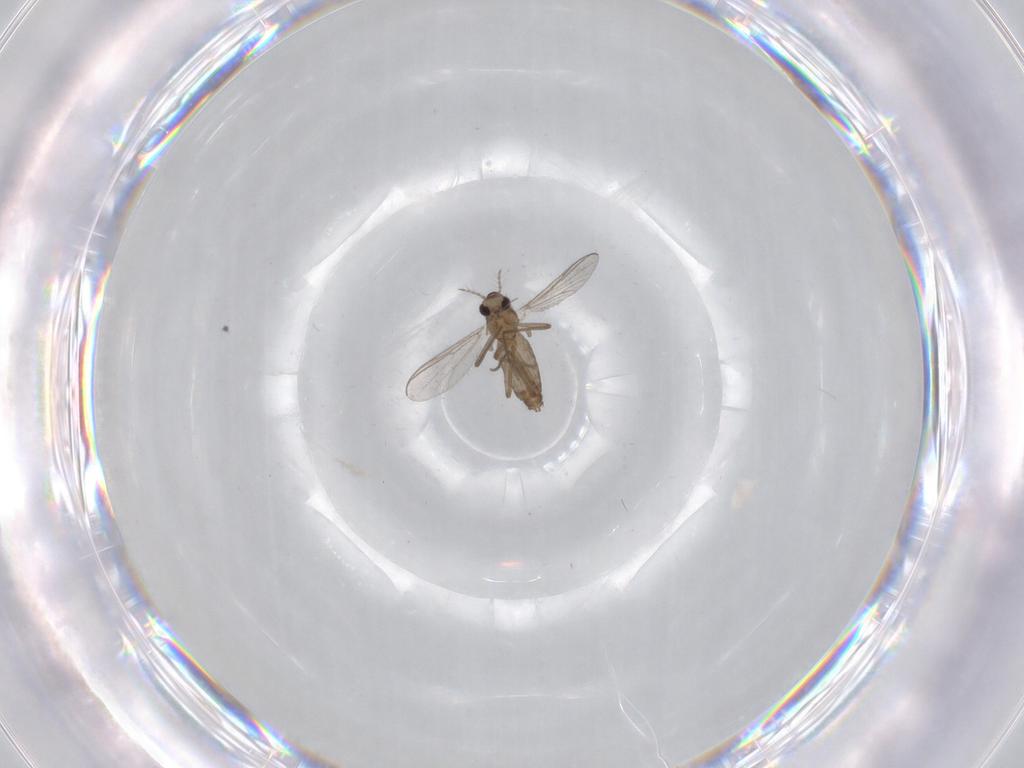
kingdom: Animalia
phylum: Arthropoda
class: Insecta
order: Diptera
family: Chironomidae
